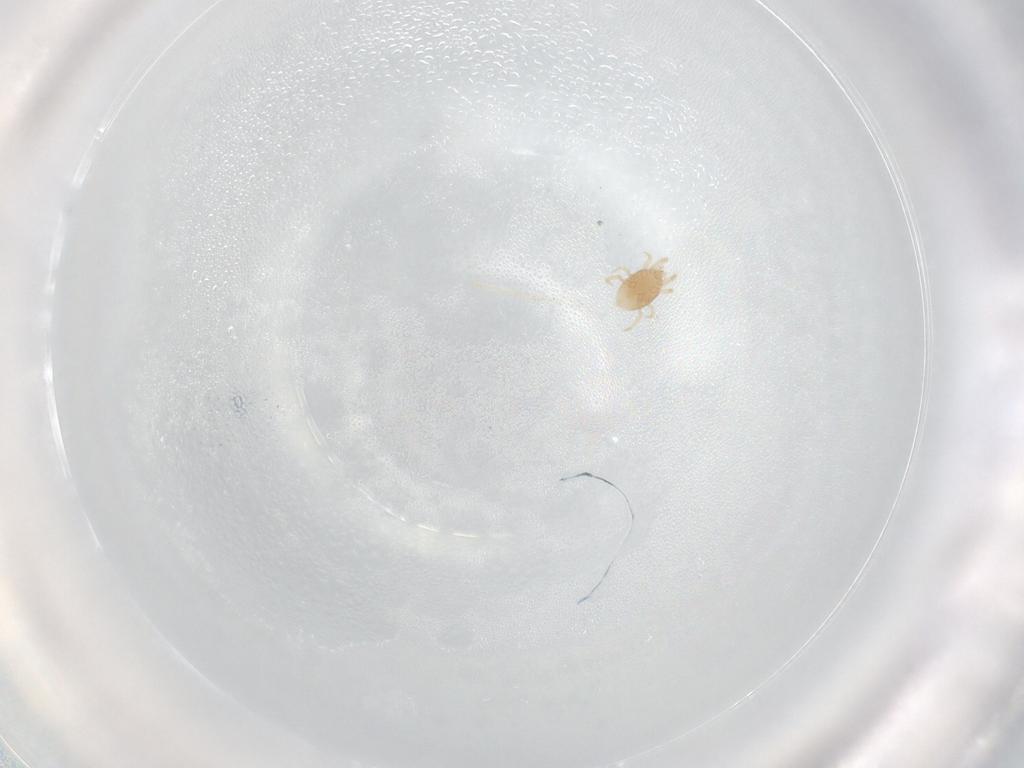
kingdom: Animalia
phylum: Arthropoda
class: Arachnida
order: Mesostigmata
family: Melicharidae
